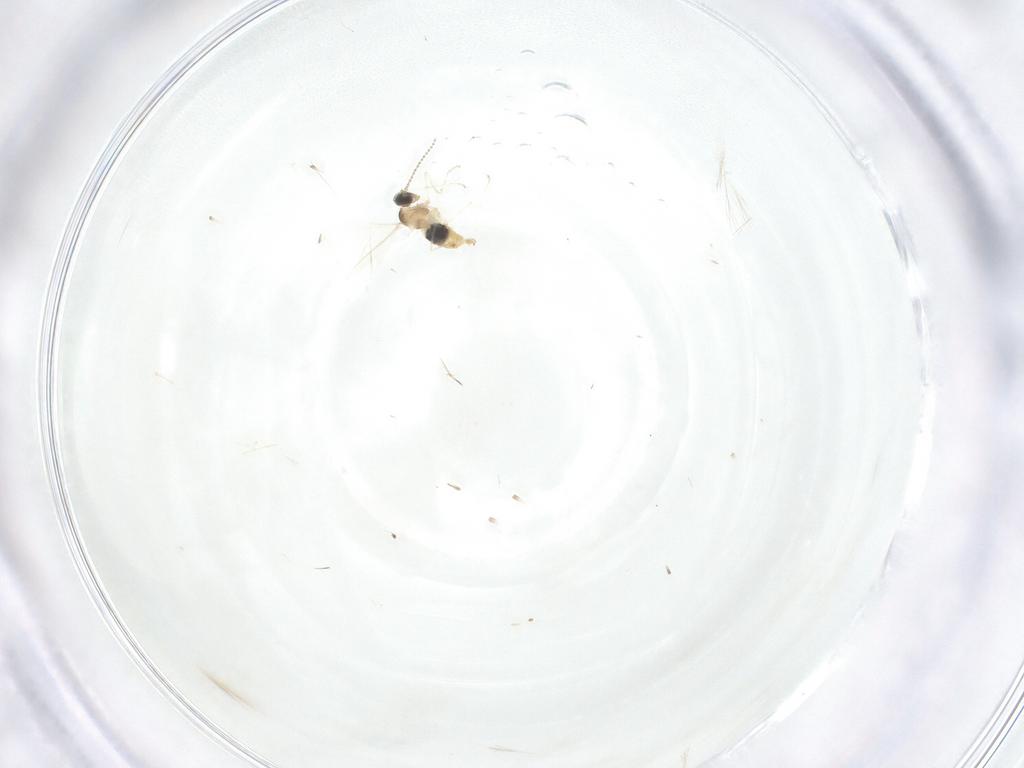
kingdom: Animalia
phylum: Arthropoda
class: Insecta
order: Diptera
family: Cecidomyiidae
